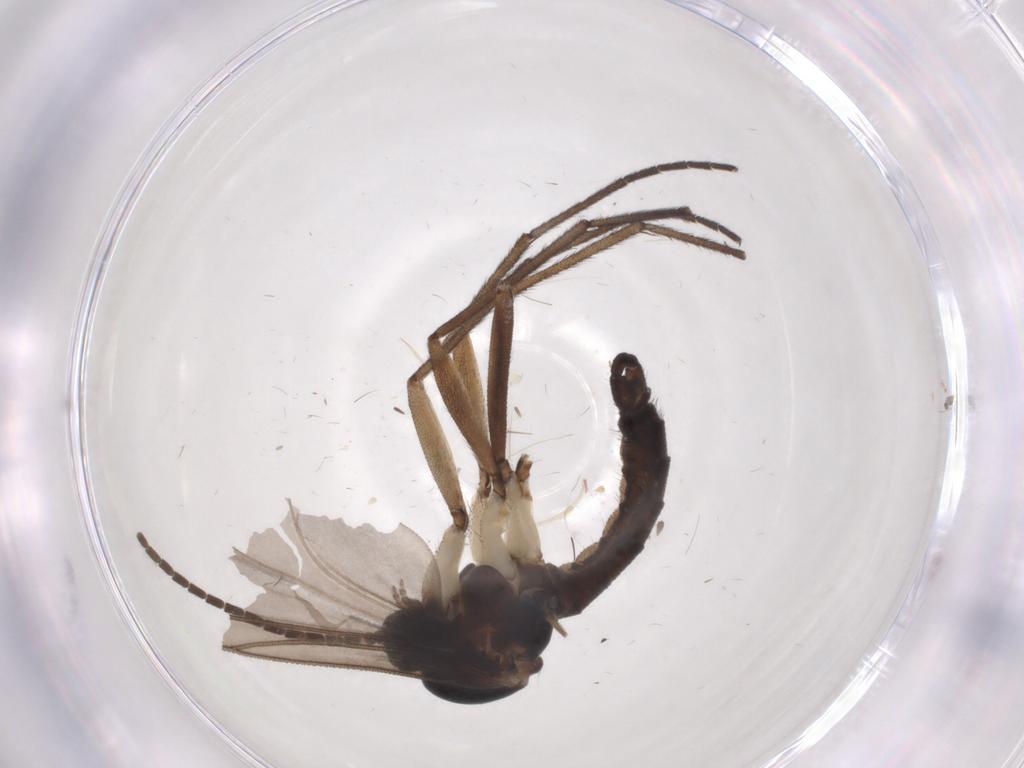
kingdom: Animalia
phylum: Arthropoda
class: Insecta
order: Diptera
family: Sciaridae
